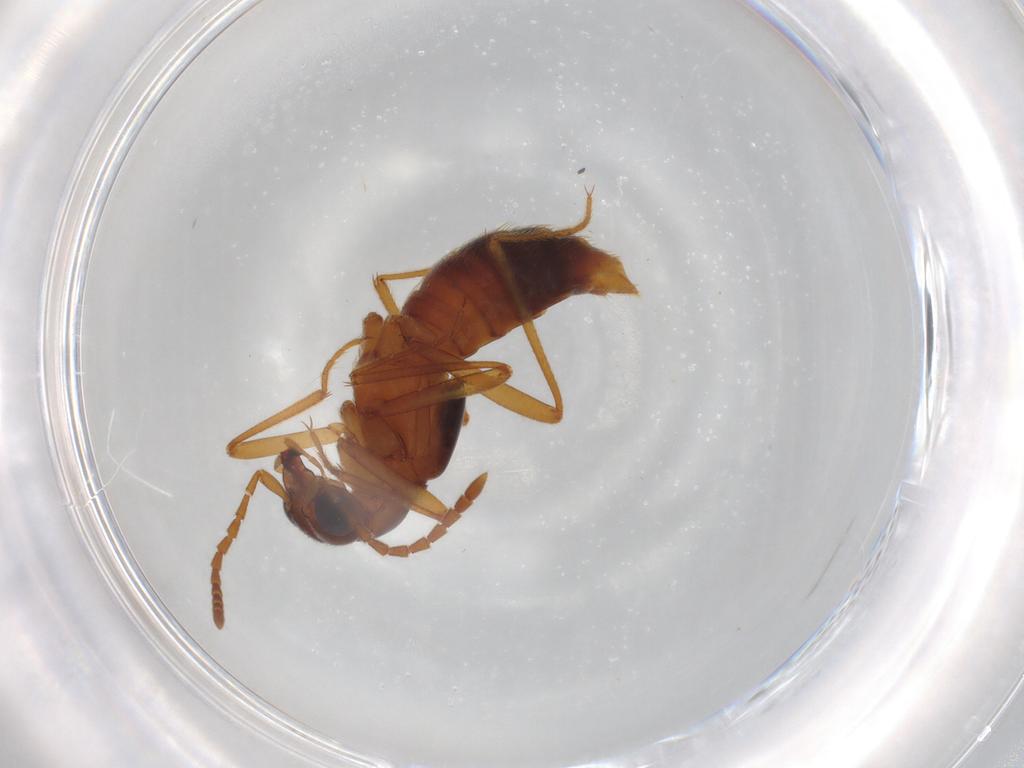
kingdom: Animalia
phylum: Arthropoda
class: Insecta
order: Coleoptera
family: Staphylinidae
